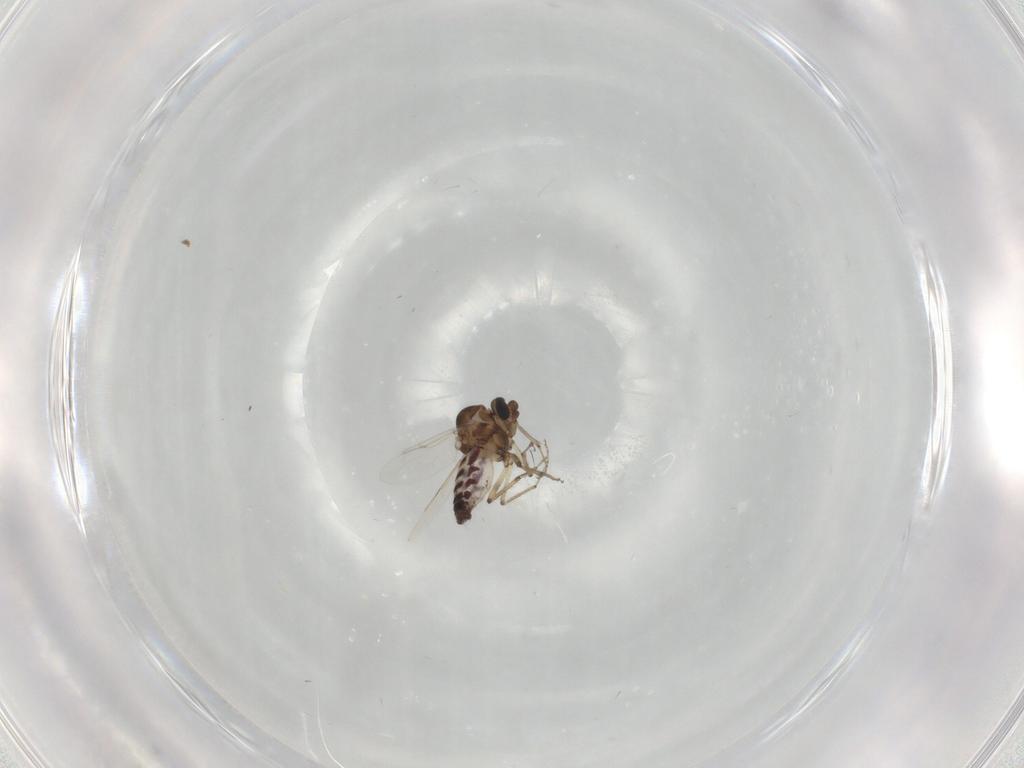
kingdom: Animalia
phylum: Arthropoda
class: Insecta
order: Diptera
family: Ceratopogonidae
